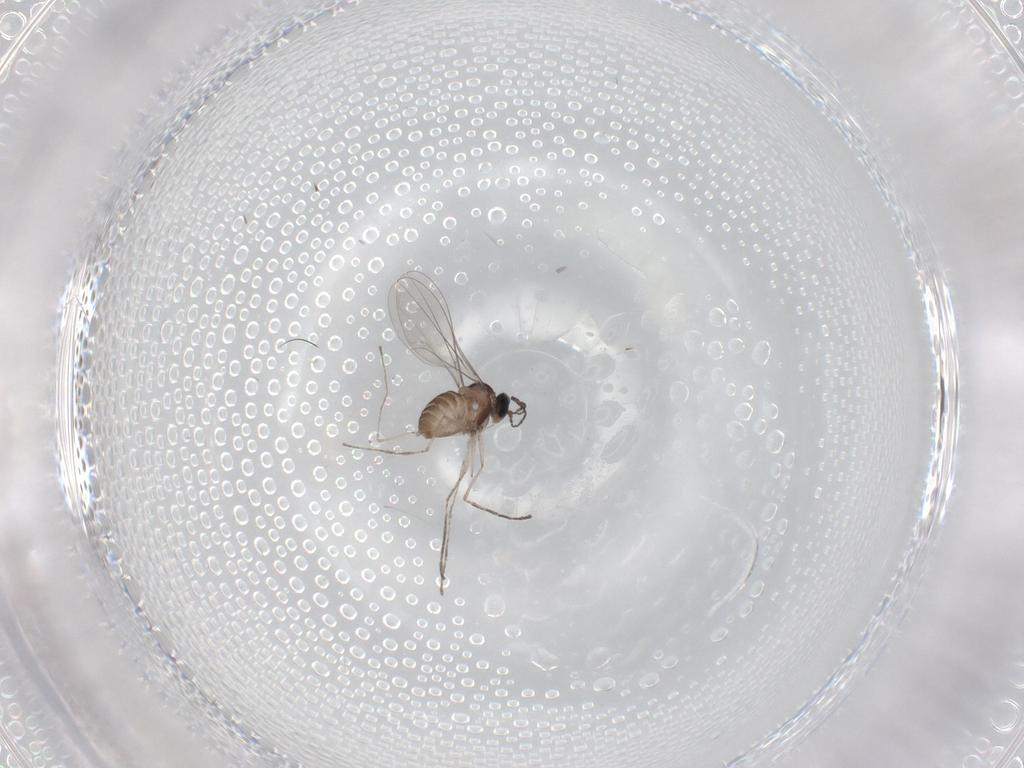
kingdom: Animalia
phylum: Arthropoda
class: Insecta
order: Diptera
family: Cecidomyiidae
